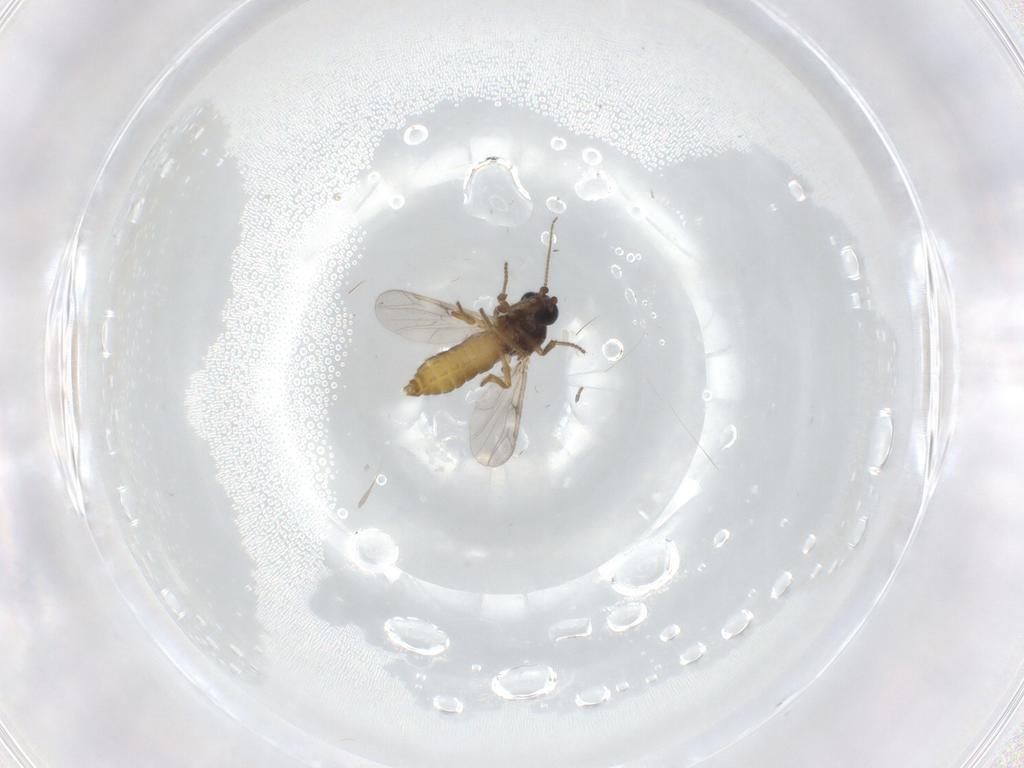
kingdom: Animalia
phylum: Arthropoda
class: Insecta
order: Diptera
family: Ceratopogonidae
